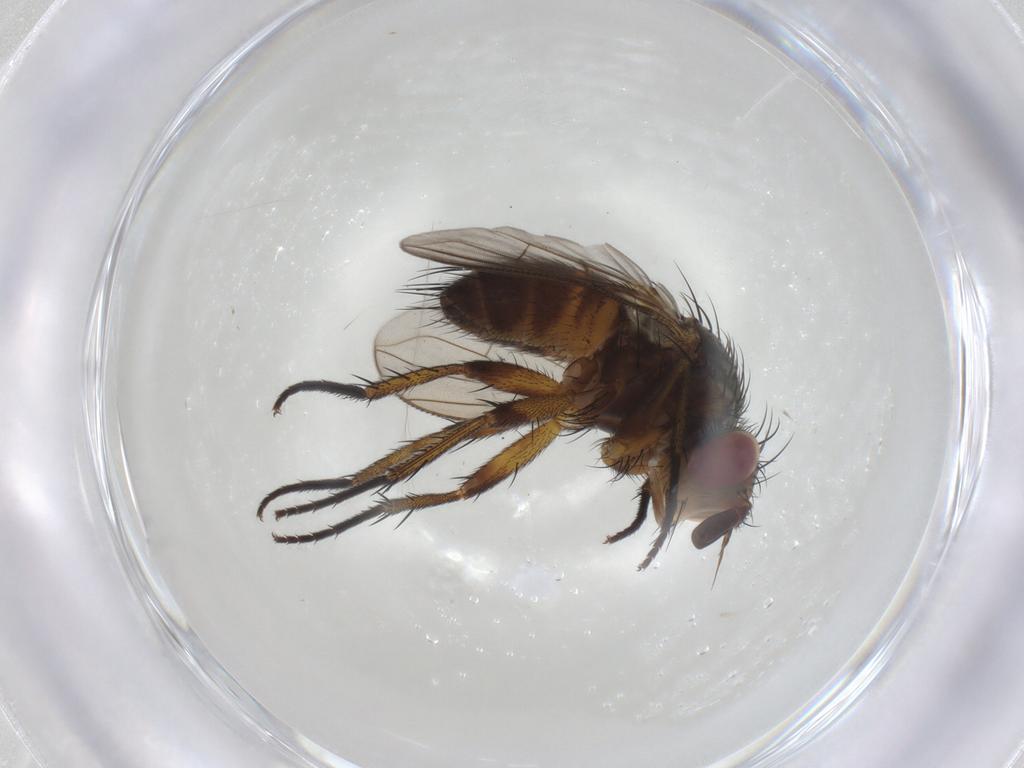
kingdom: Animalia
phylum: Arthropoda
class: Insecta
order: Diptera
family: Tachinidae
